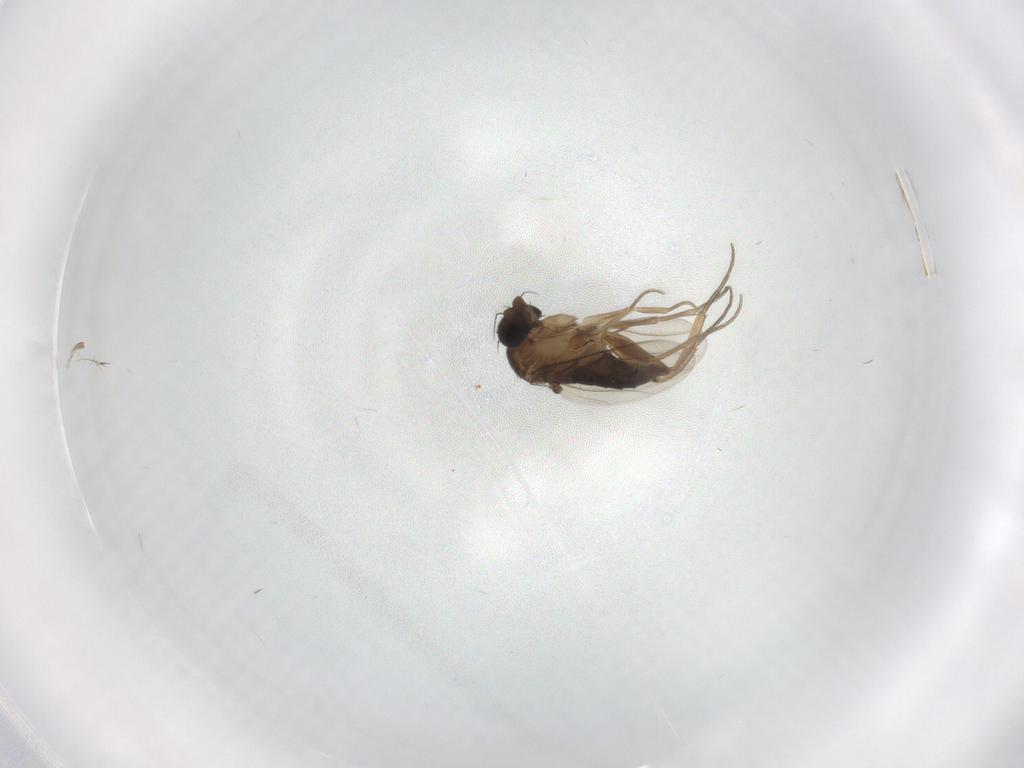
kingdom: Animalia
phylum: Arthropoda
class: Insecta
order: Diptera
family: Psychodidae
